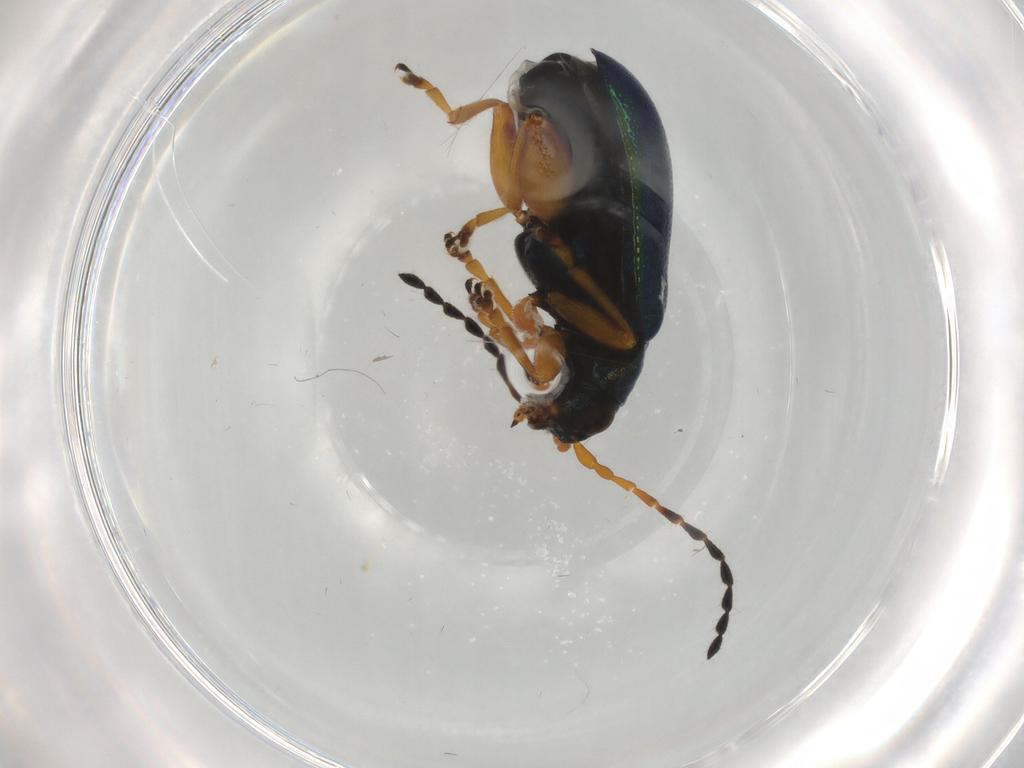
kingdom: Animalia
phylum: Arthropoda
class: Insecta
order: Coleoptera
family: Chrysomelidae
